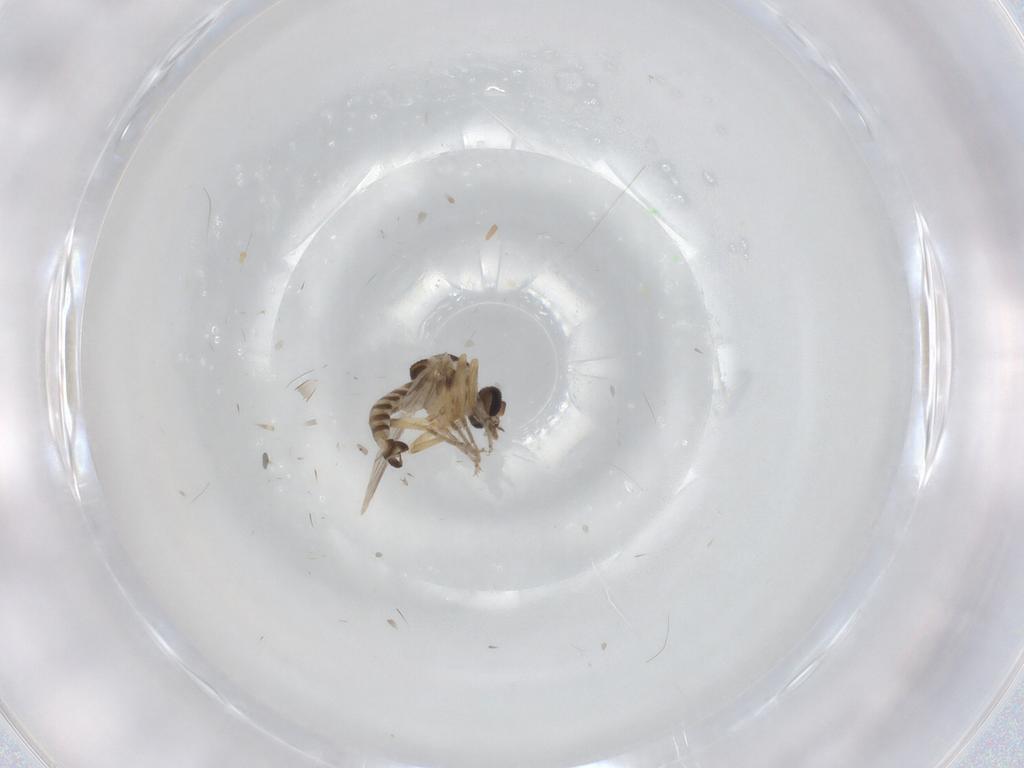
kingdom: Animalia
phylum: Arthropoda
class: Insecta
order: Diptera
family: Ceratopogonidae
